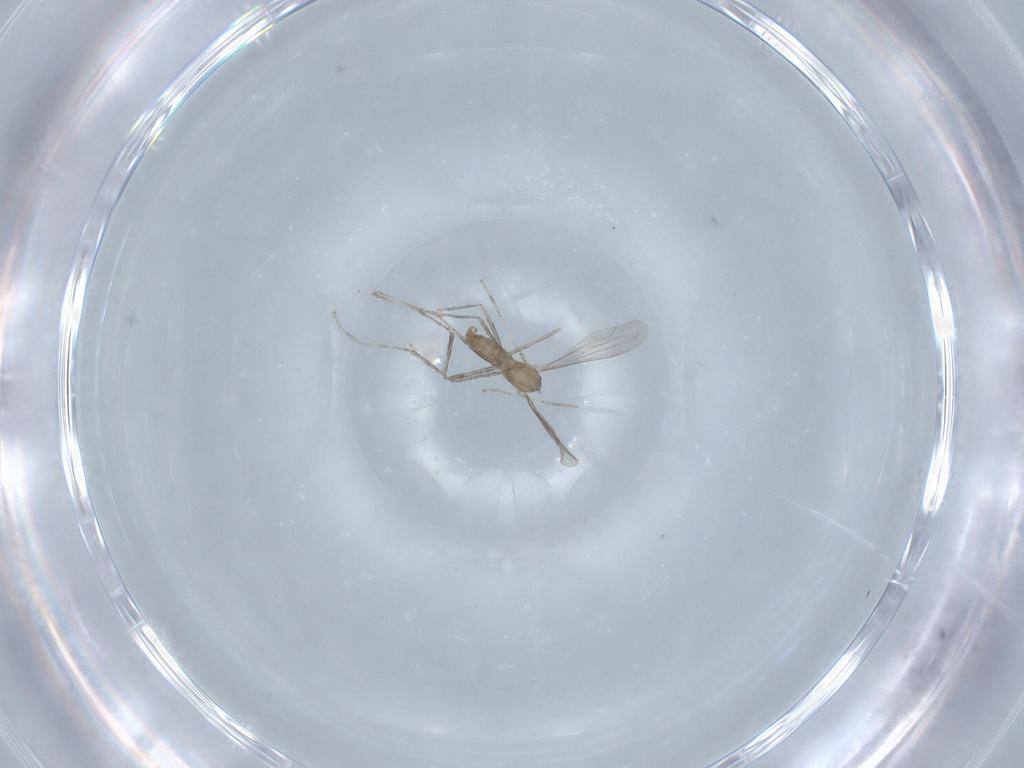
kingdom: Animalia
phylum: Arthropoda
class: Insecta
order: Diptera
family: Cecidomyiidae
